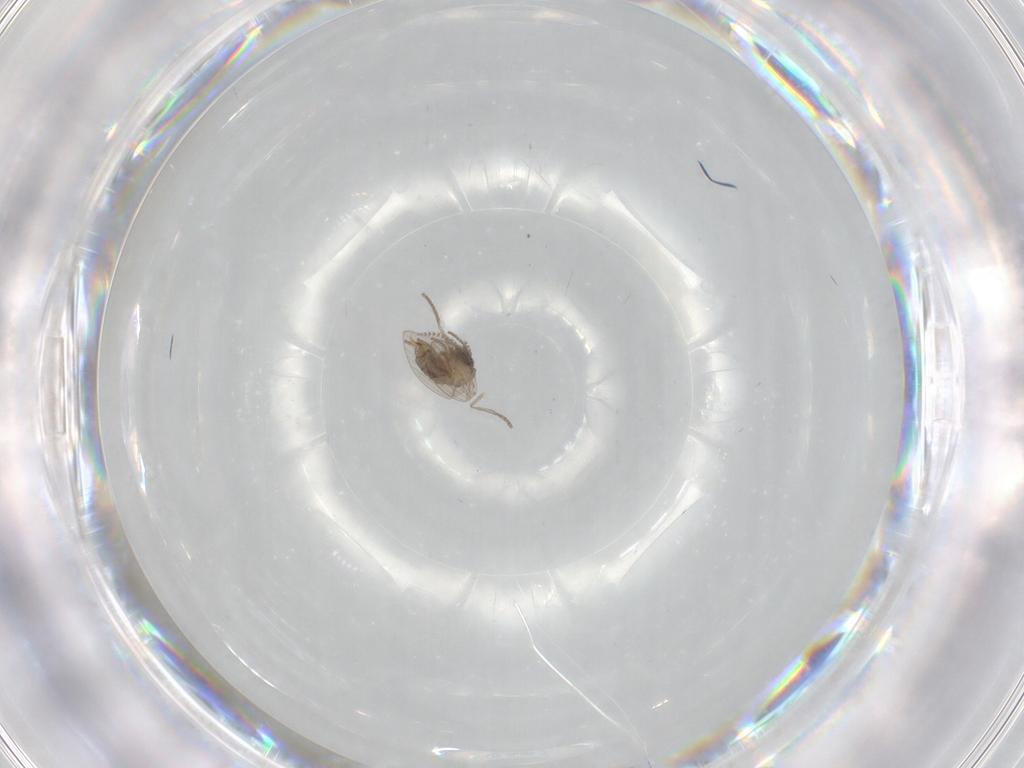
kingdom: Animalia
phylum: Arthropoda
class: Insecta
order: Diptera
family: Psychodidae
